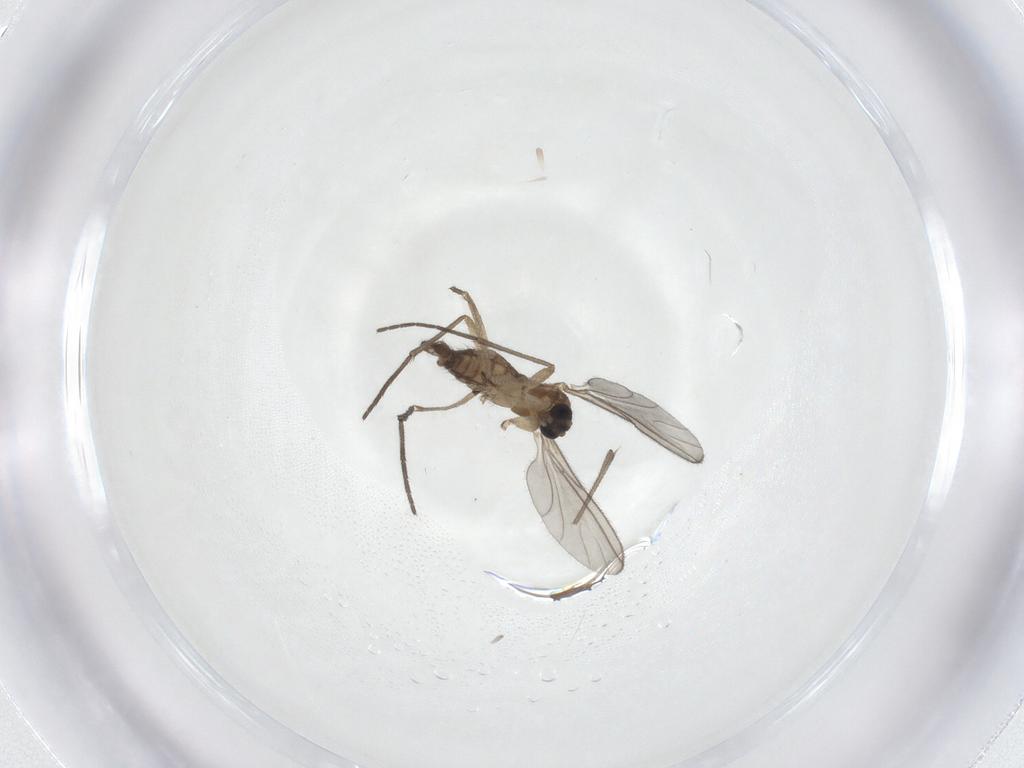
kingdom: Animalia
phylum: Arthropoda
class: Insecta
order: Diptera
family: Sciaridae
